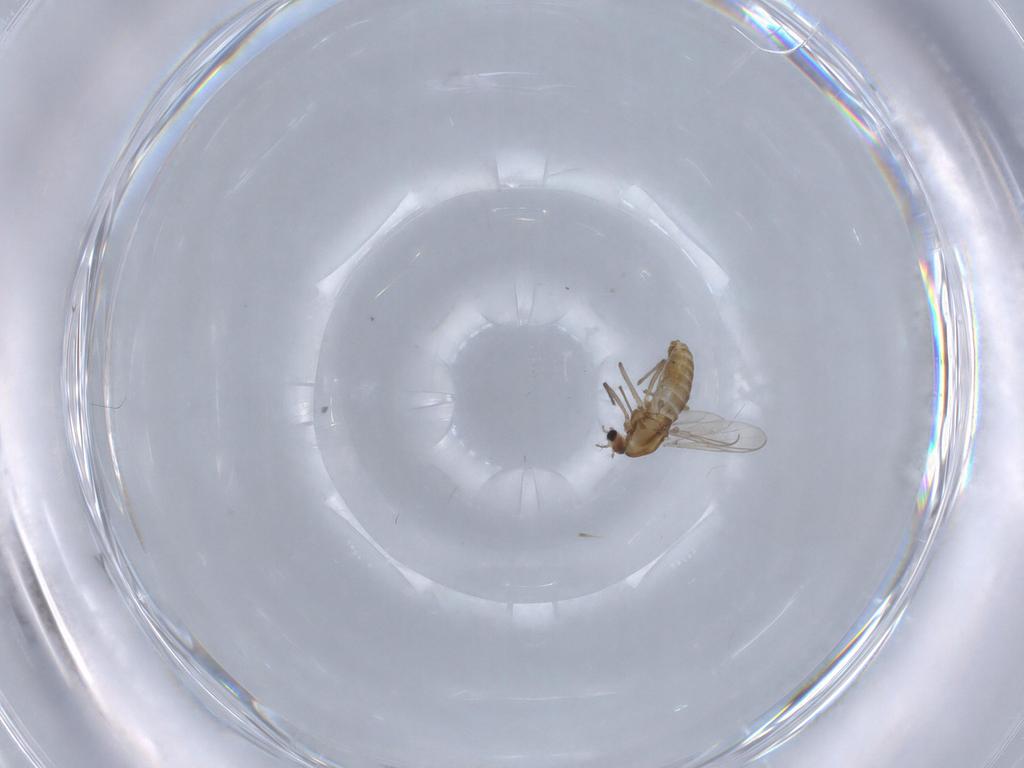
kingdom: Animalia
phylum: Arthropoda
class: Insecta
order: Diptera
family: Chironomidae
